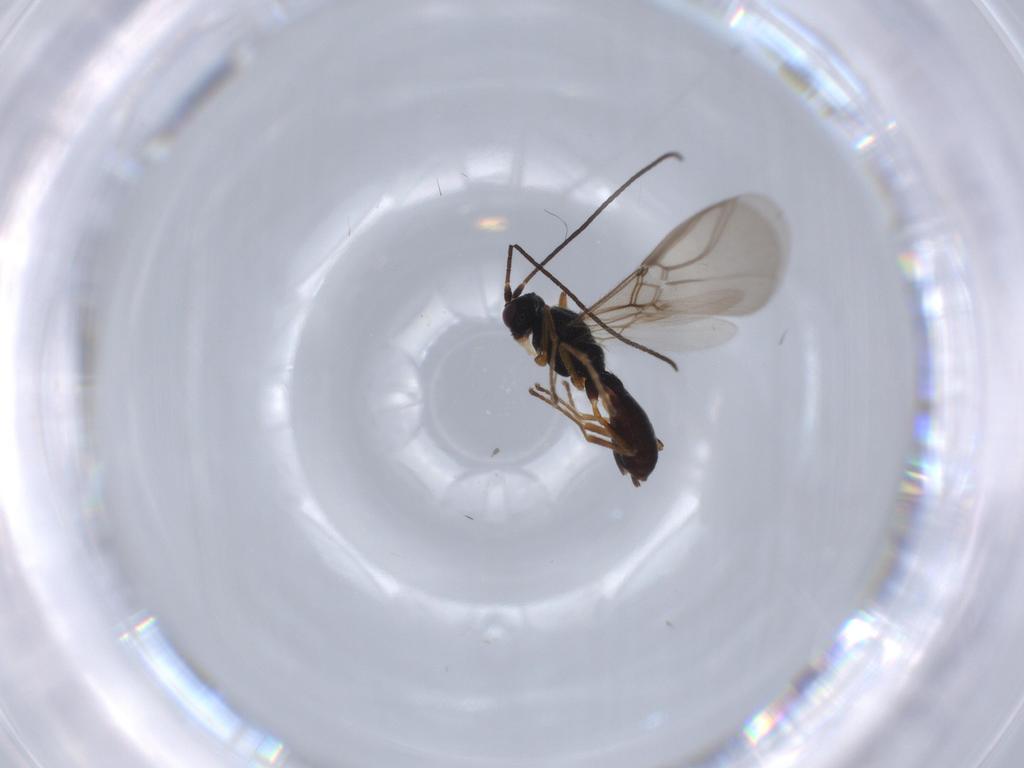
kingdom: Animalia
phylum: Arthropoda
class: Insecta
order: Hymenoptera
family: Braconidae
